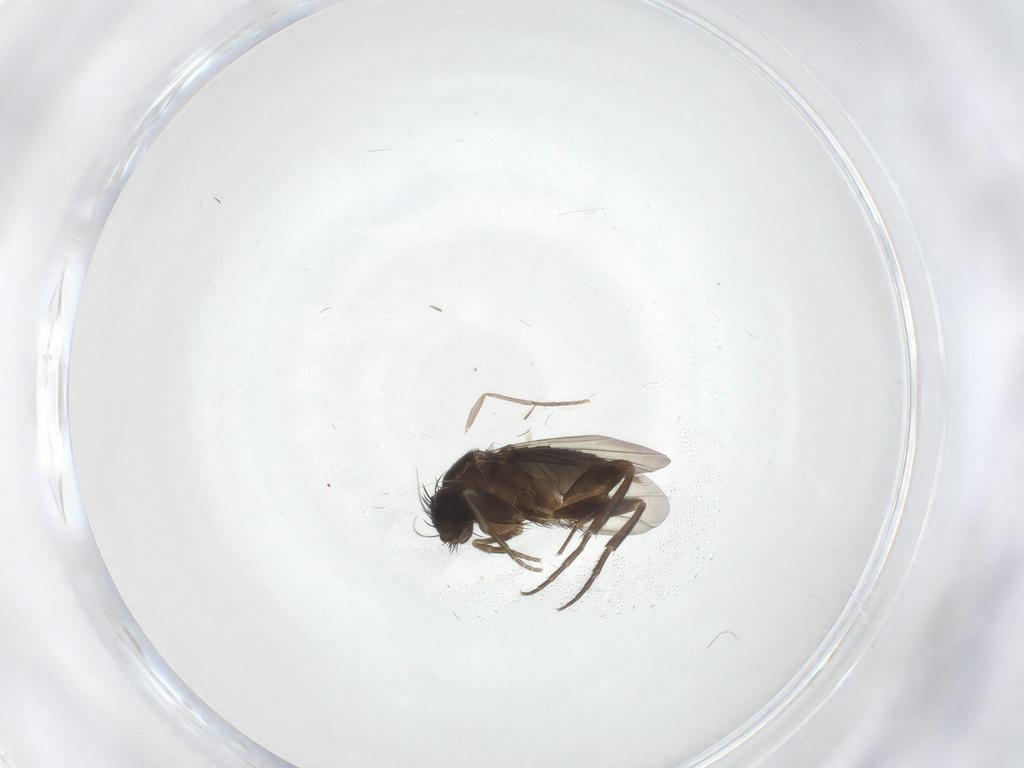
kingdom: Animalia
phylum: Arthropoda
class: Insecta
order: Diptera
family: Phoridae
